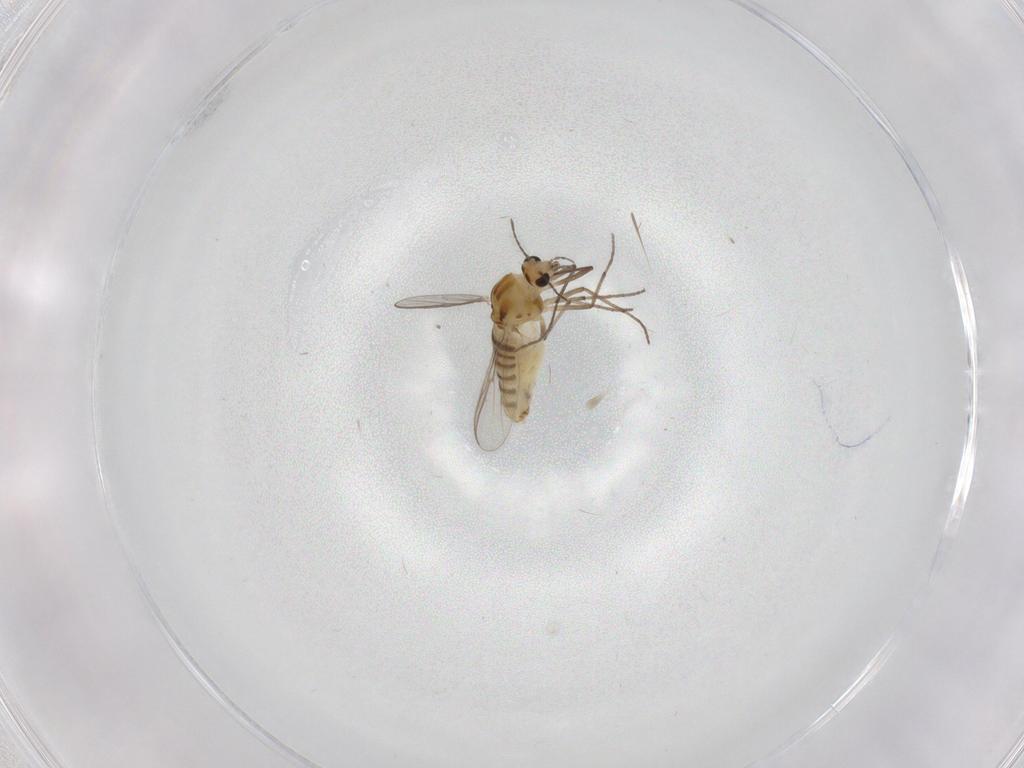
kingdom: Animalia
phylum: Arthropoda
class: Insecta
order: Diptera
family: Chironomidae
